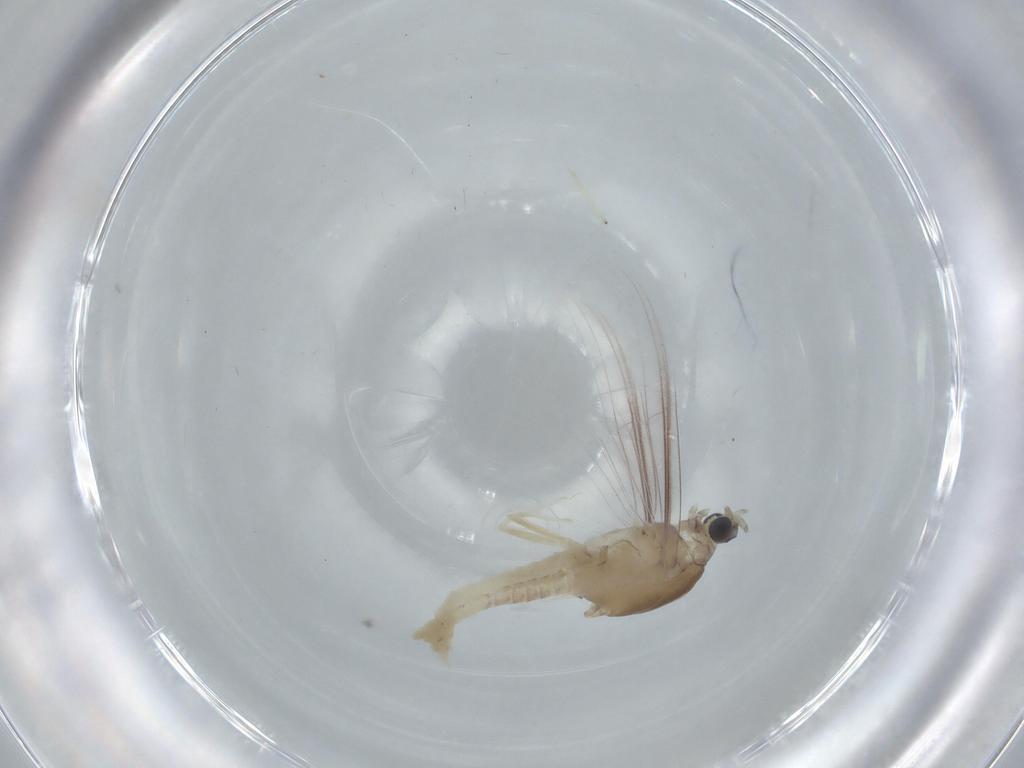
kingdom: Animalia
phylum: Arthropoda
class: Insecta
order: Ephemeroptera
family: Caenidae
